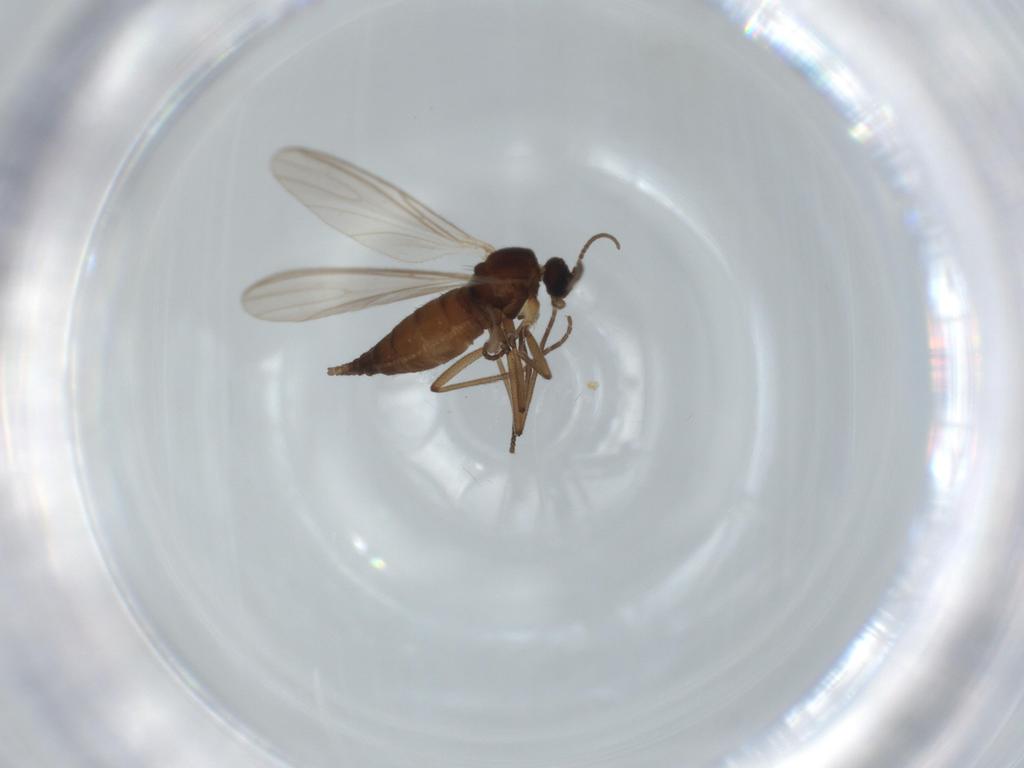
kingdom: Animalia
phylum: Arthropoda
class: Insecta
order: Diptera
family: Sciaridae
